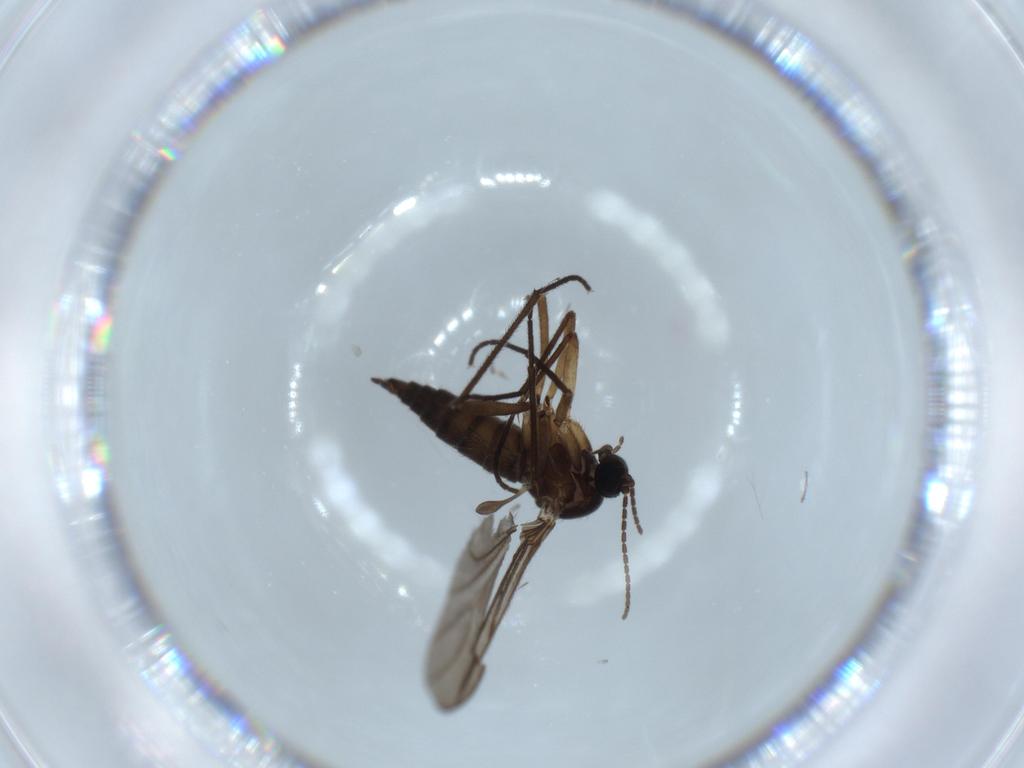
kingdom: Animalia
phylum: Arthropoda
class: Insecta
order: Diptera
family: Sciaridae
